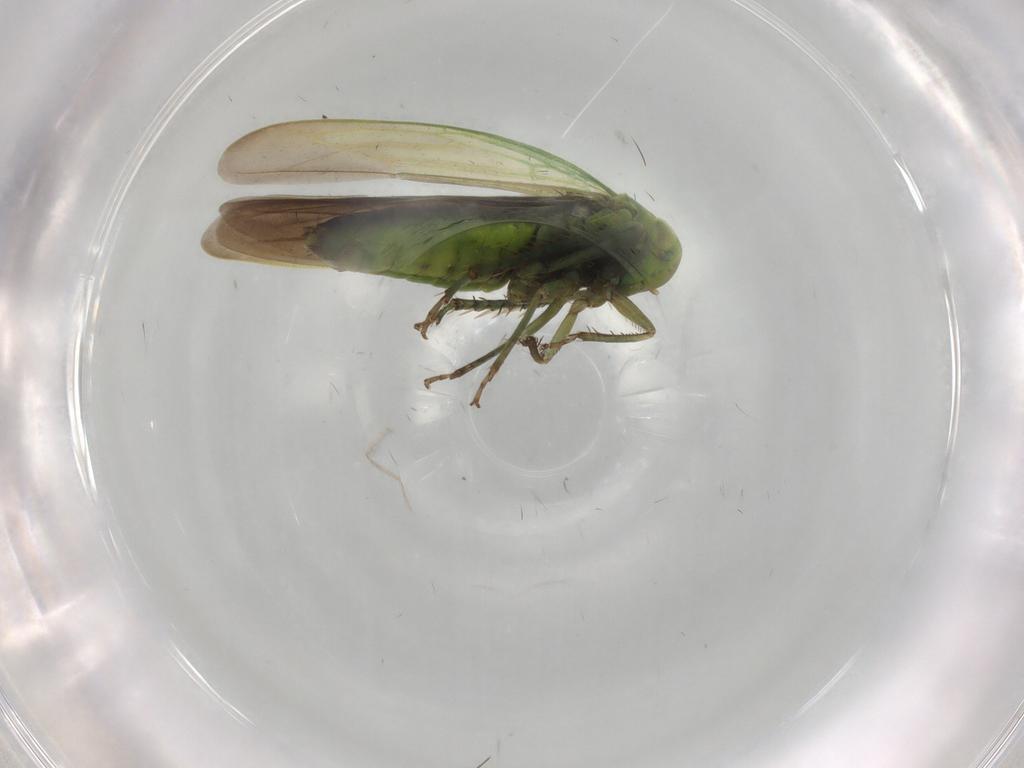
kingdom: Animalia
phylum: Arthropoda
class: Insecta
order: Hemiptera
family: Cicadellidae
